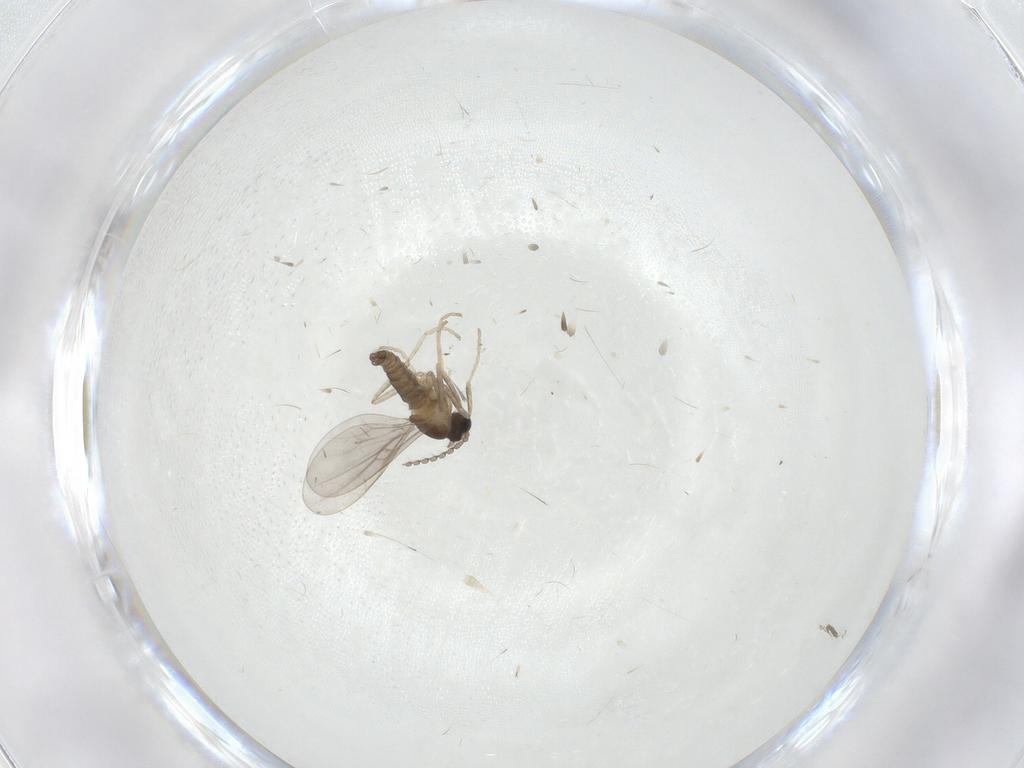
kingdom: Animalia
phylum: Arthropoda
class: Insecta
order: Diptera
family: Cecidomyiidae
